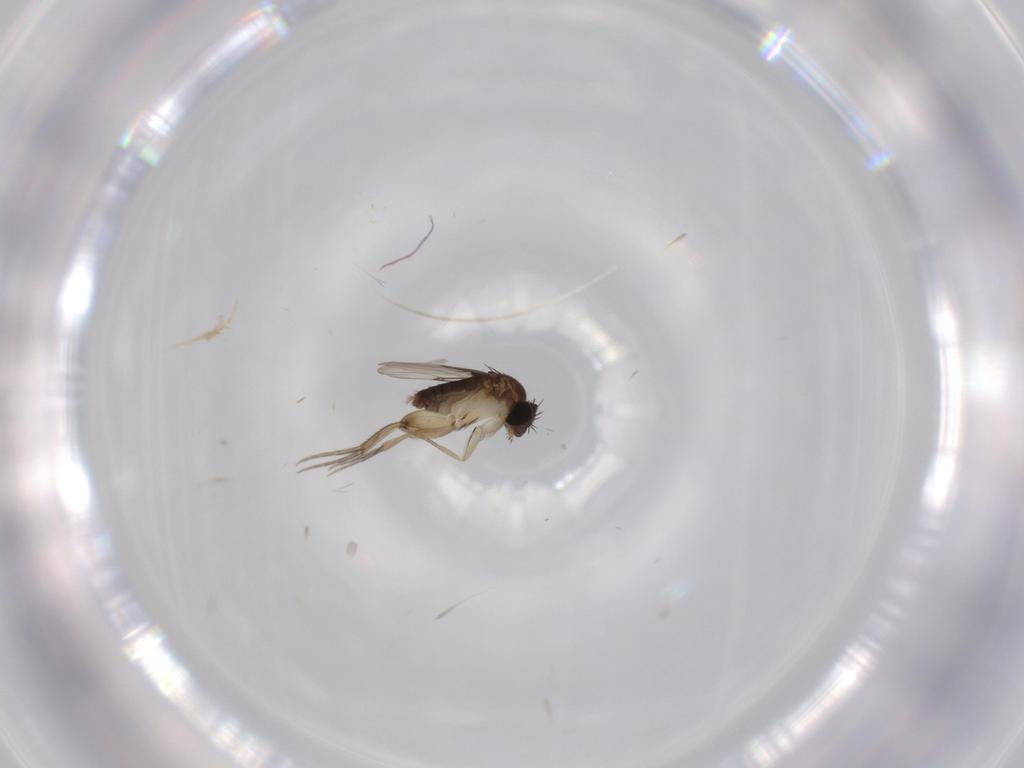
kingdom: Animalia
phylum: Arthropoda
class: Insecta
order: Diptera
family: Phoridae
